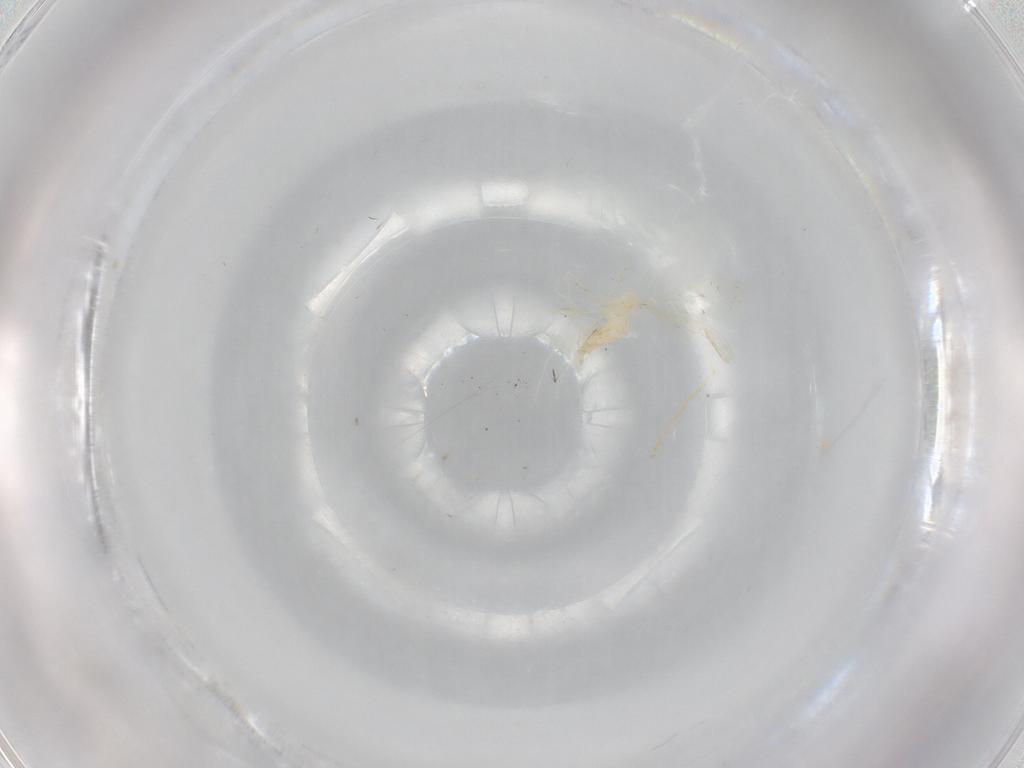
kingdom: Animalia
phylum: Arthropoda
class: Insecta
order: Diptera
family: Cecidomyiidae
